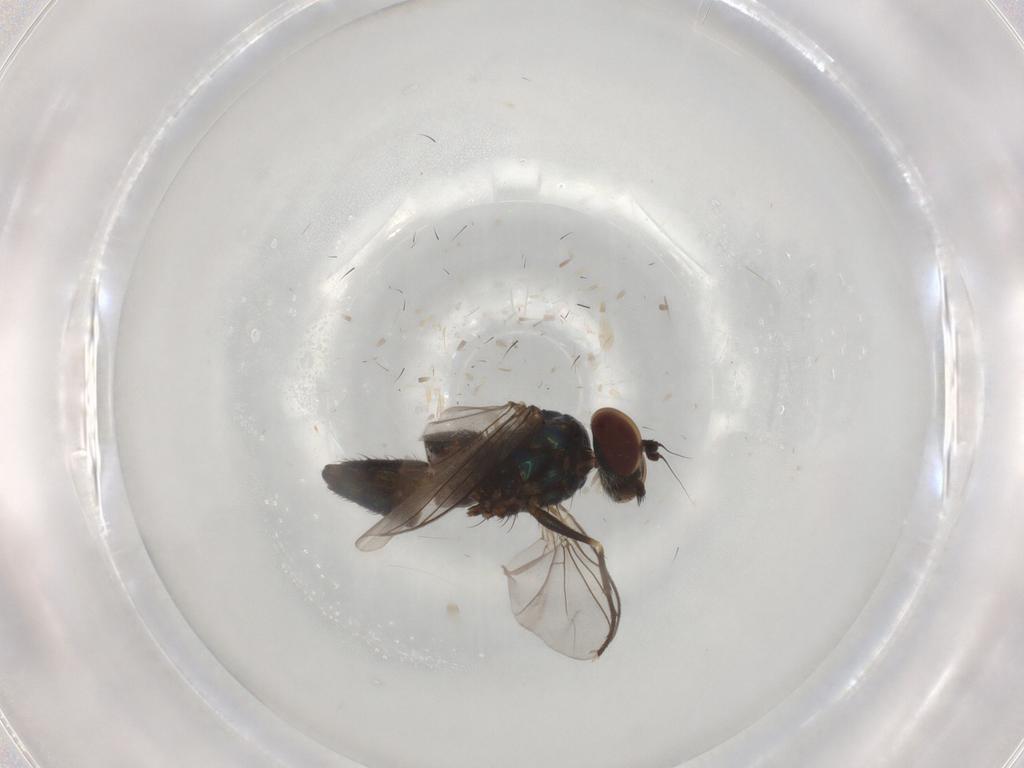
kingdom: Animalia
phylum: Arthropoda
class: Insecta
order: Diptera
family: Dolichopodidae
